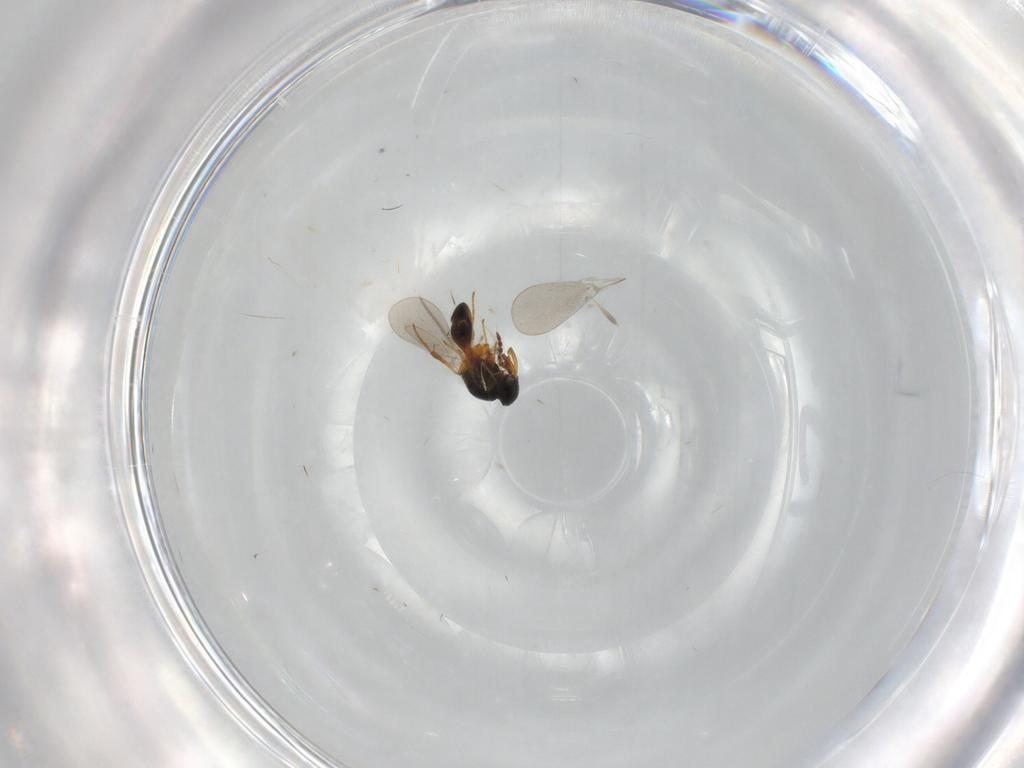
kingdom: Animalia
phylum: Arthropoda
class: Insecta
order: Hymenoptera
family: Platygastridae
